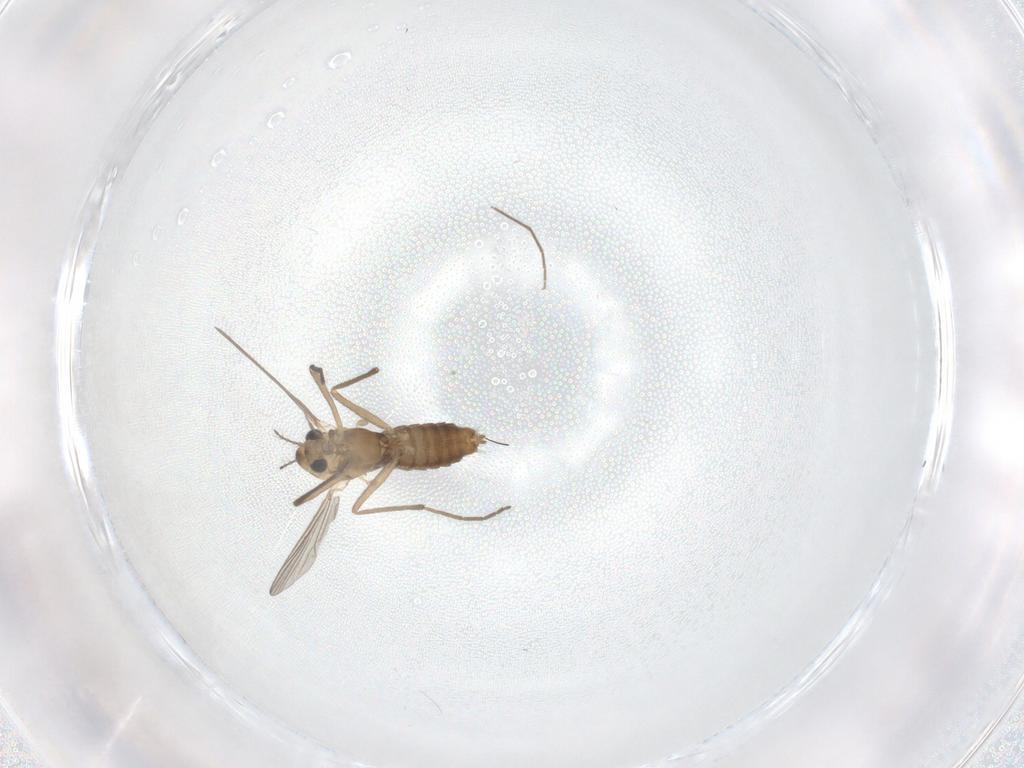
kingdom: Animalia
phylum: Arthropoda
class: Insecta
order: Diptera
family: Chironomidae
